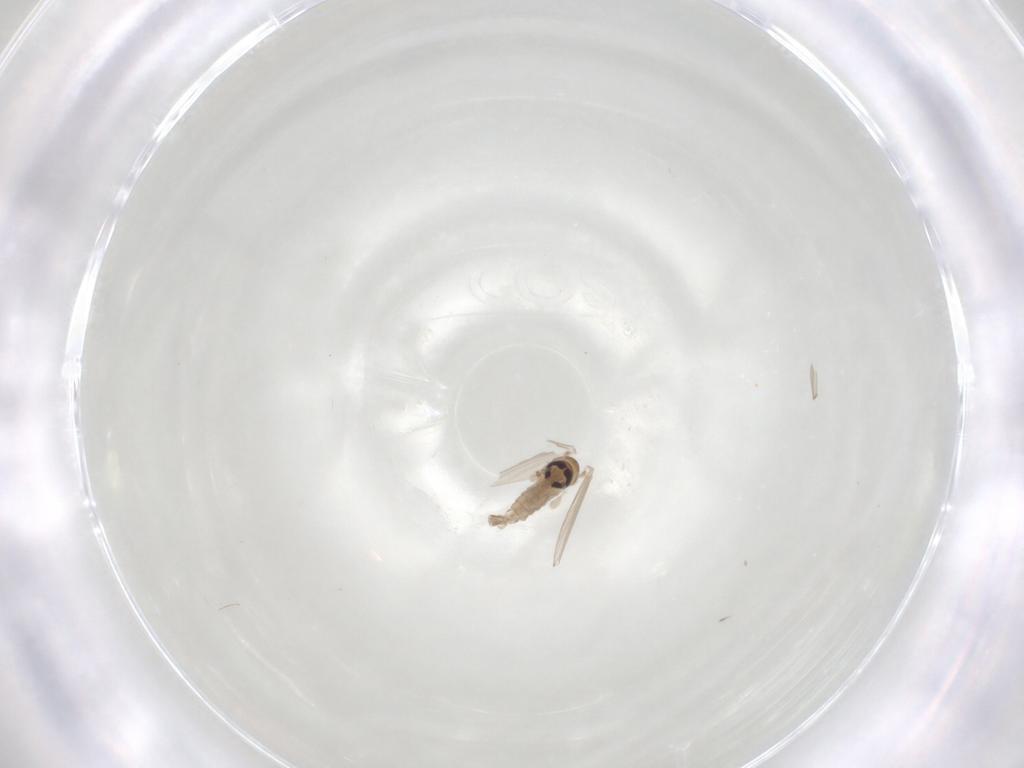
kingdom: Animalia
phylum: Arthropoda
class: Insecta
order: Diptera
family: Psychodidae
